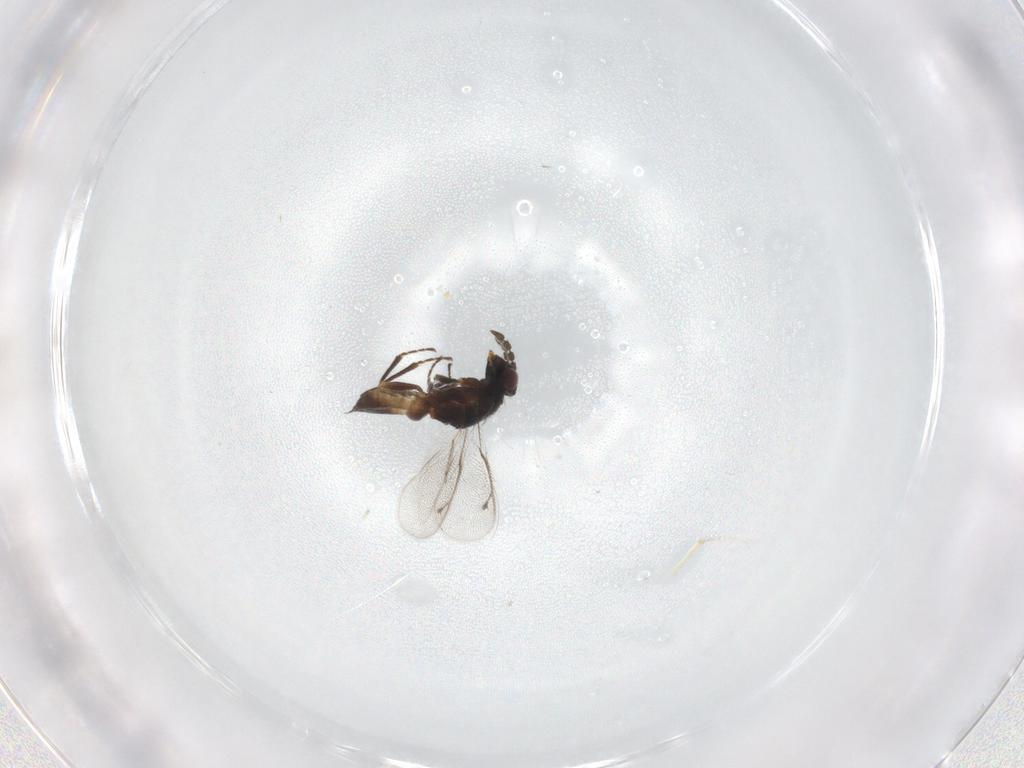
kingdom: Animalia
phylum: Arthropoda
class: Insecta
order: Hymenoptera
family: Eulophidae
